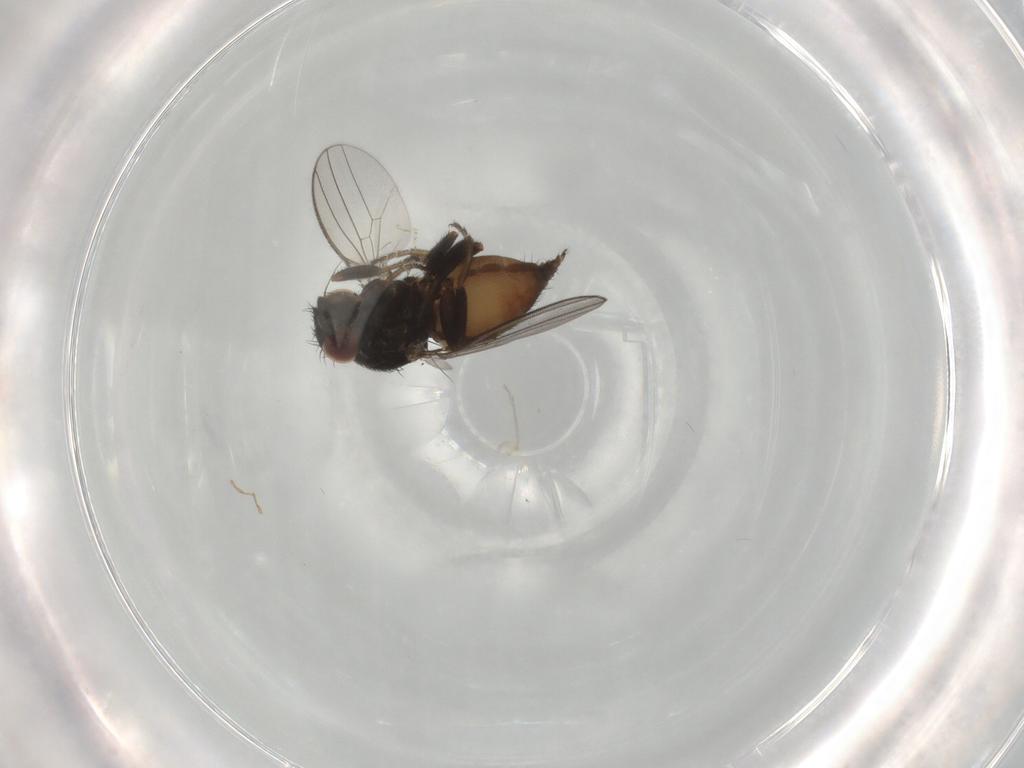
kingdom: Animalia
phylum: Arthropoda
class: Insecta
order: Diptera
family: Milichiidae
